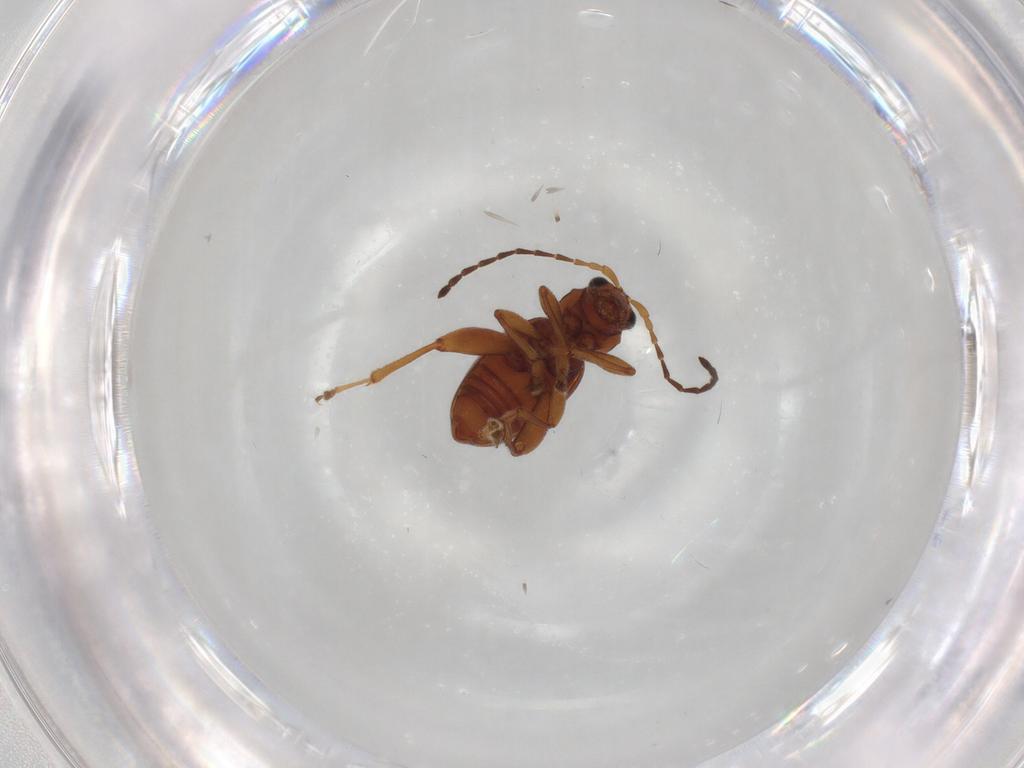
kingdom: Animalia
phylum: Arthropoda
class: Insecta
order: Coleoptera
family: Chrysomelidae
